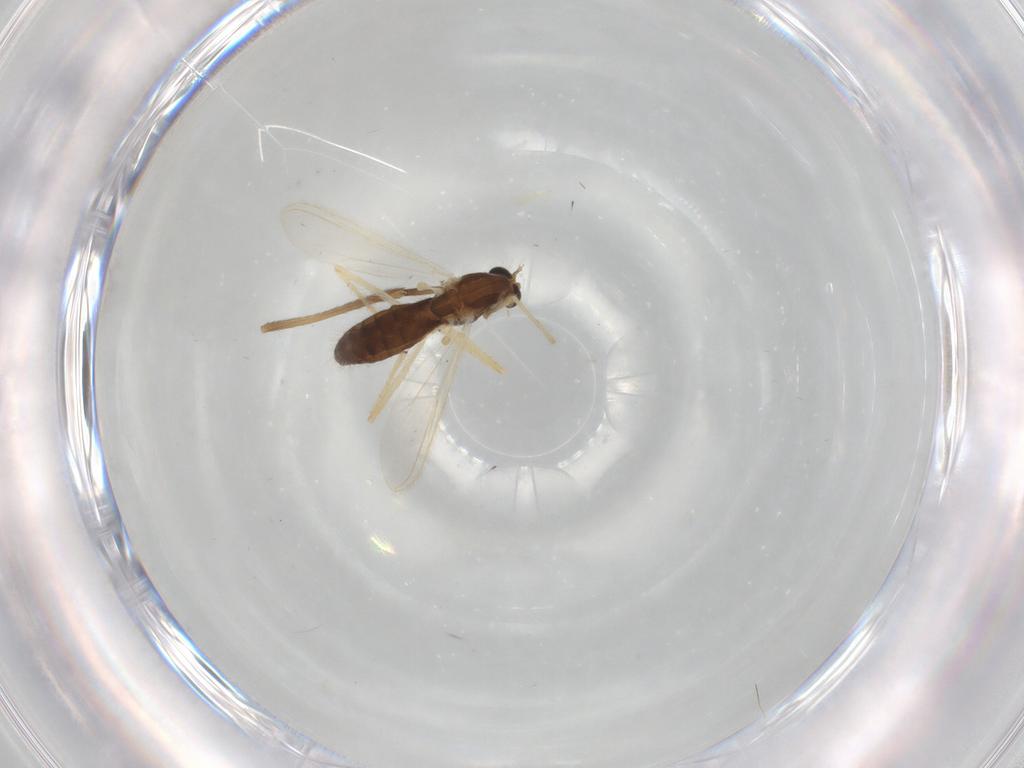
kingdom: Animalia
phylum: Arthropoda
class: Insecta
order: Diptera
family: Chironomidae
